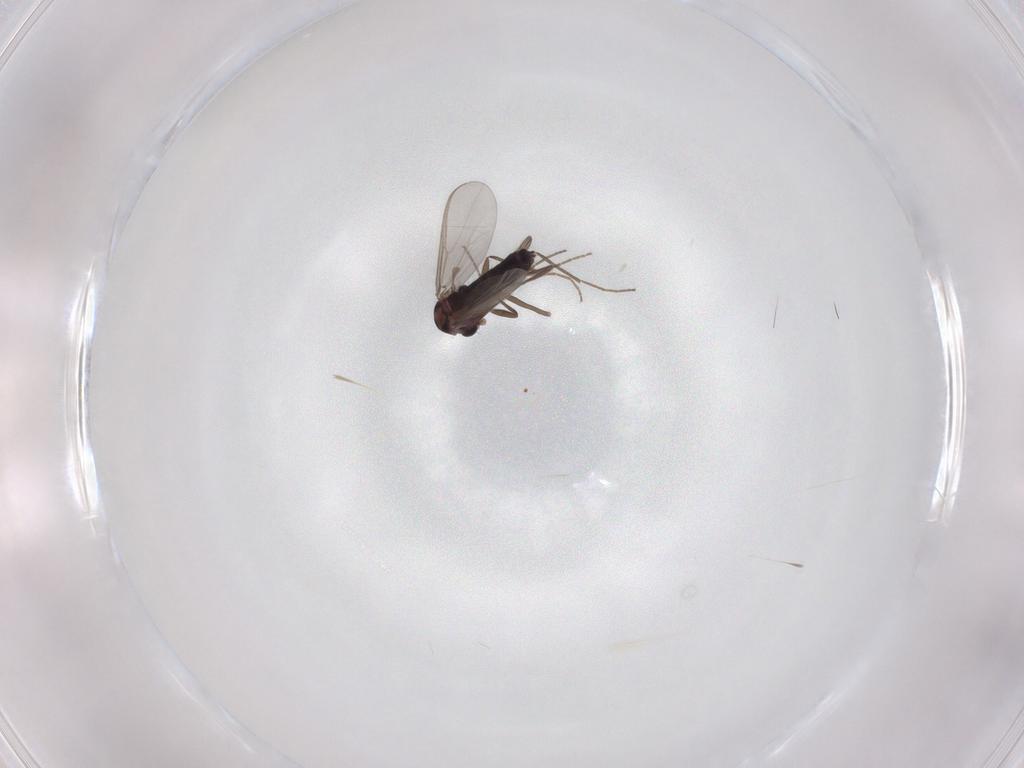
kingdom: Animalia
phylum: Arthropoda
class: Insecta
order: Diptera
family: Chironomidae
